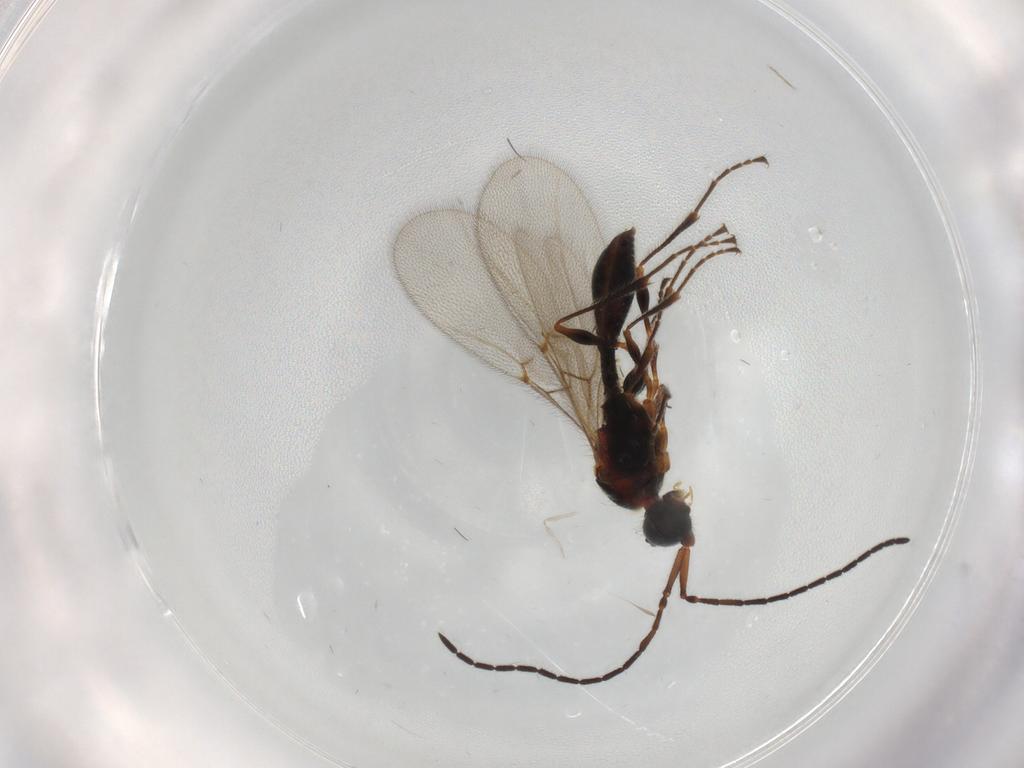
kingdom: Animalia
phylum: Arthropoda
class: Insecta
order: Hymenoptera
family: Diapriidae
